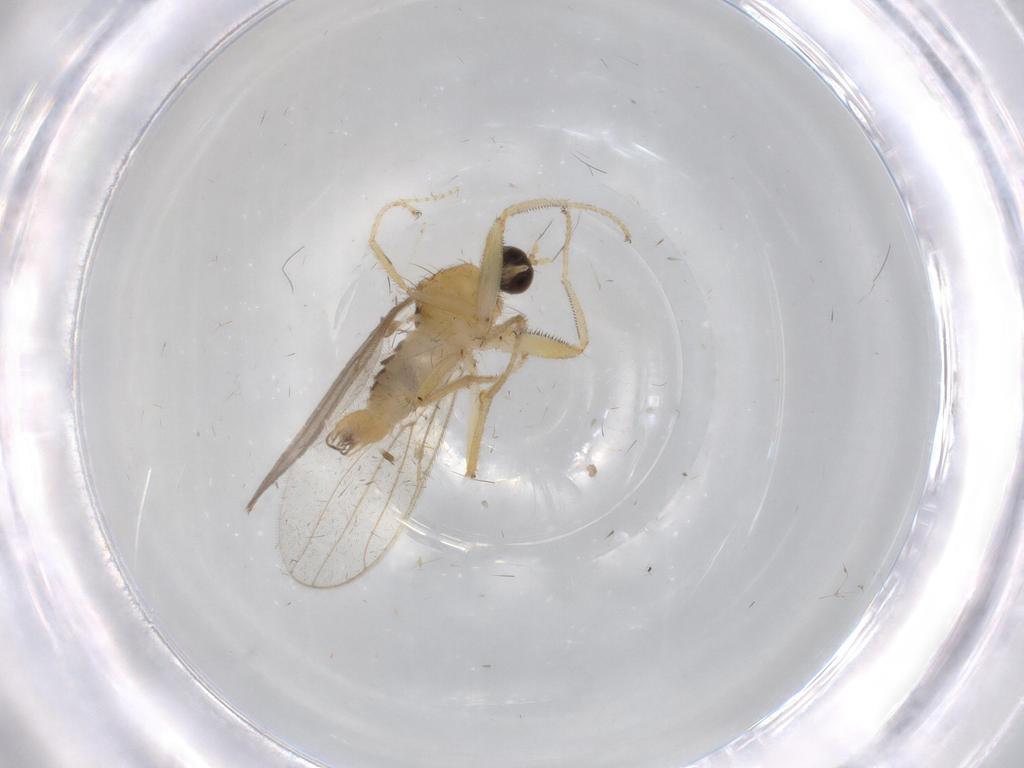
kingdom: Animalia
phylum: Arthropoda
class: Insecta
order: Diptera
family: Hybotidae
